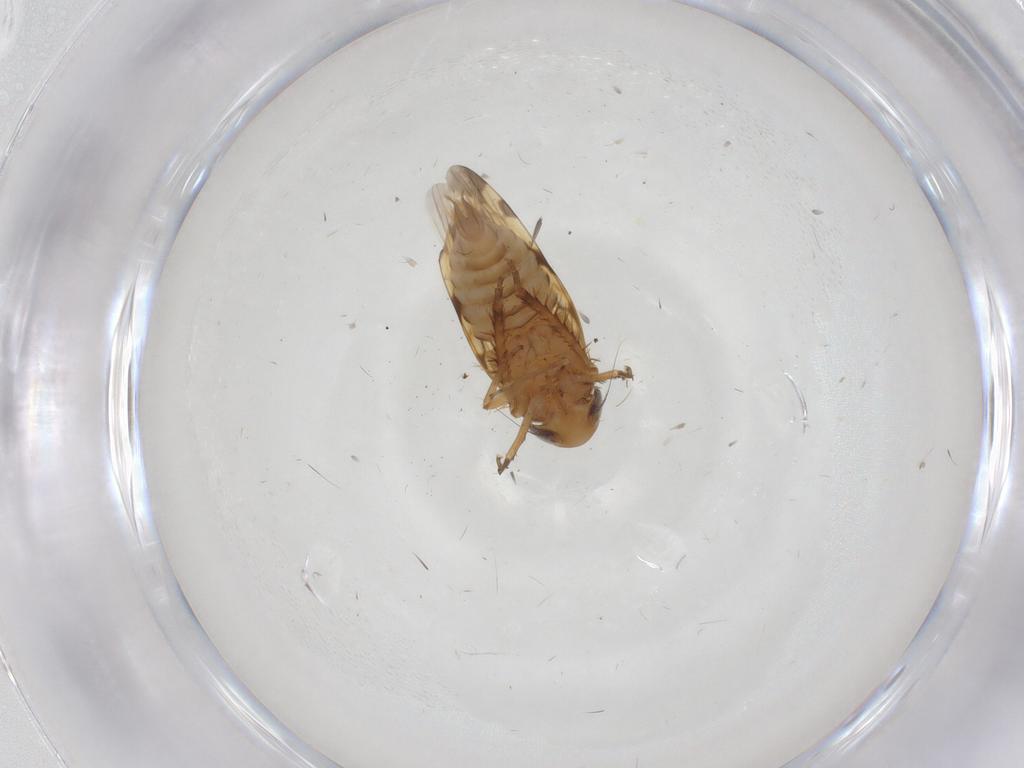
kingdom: Animalia
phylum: Arthropoda
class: Insecta
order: Hemiptera
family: Cicadellidae
